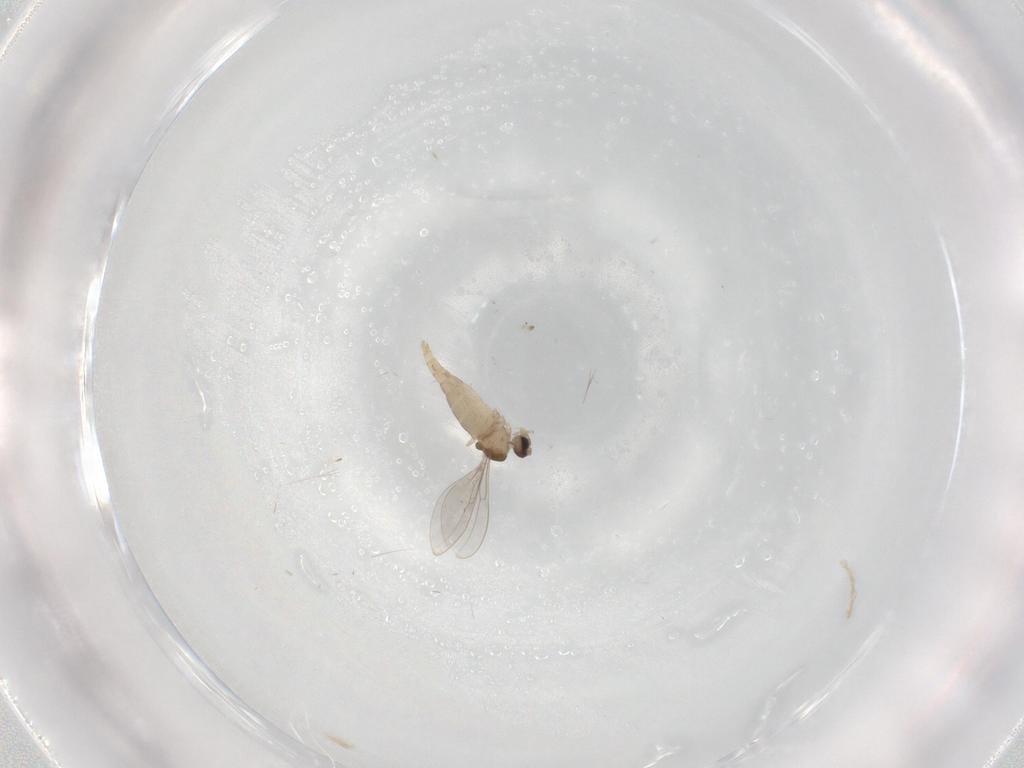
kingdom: Animalia
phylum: Arthropoda
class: Insecta
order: Diptera
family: Cecidomyiidae
